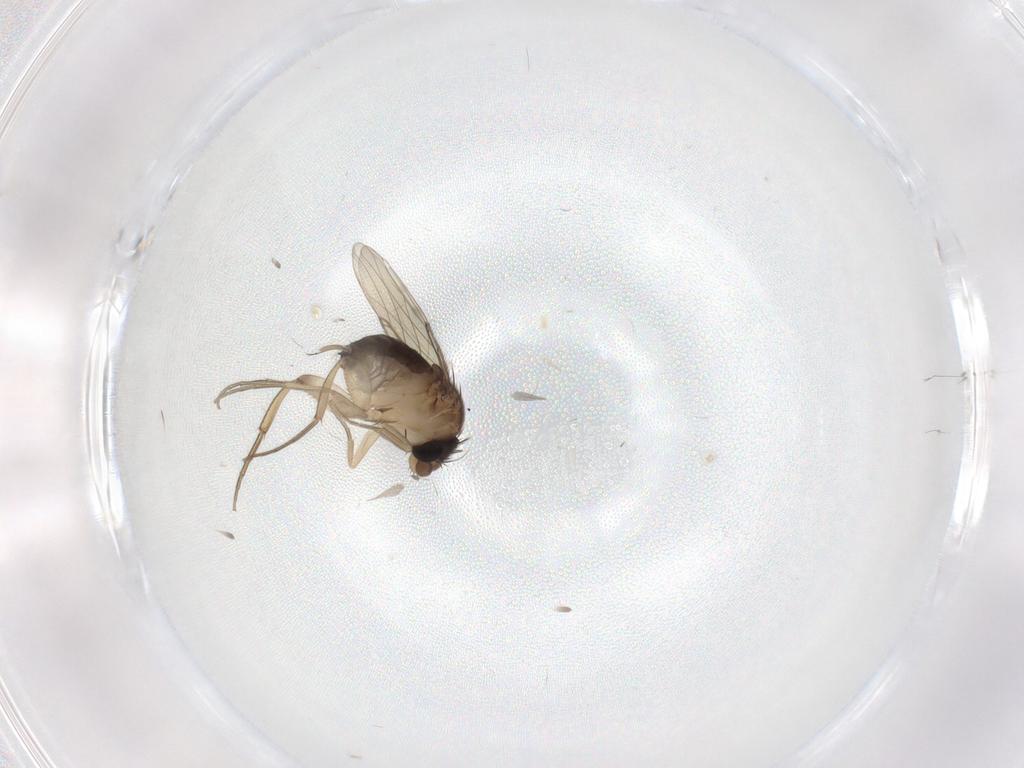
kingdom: Animalia
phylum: Arthropoda
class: Insecta
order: Diptera
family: Phoridae
